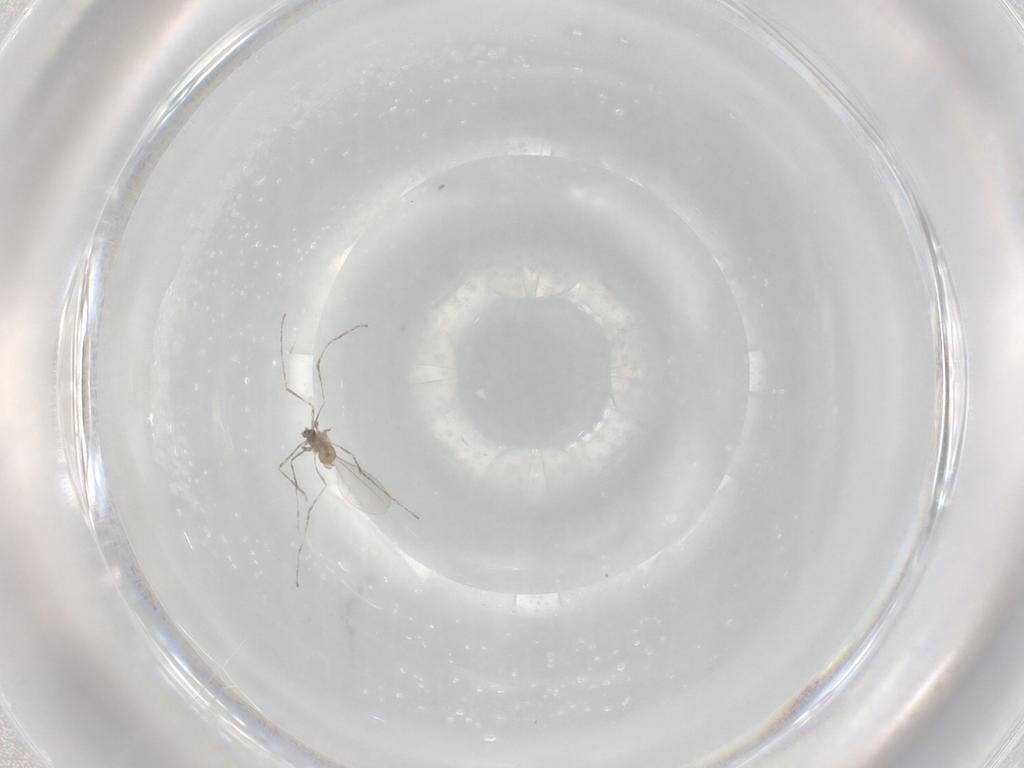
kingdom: Animalia
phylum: Arthropoda
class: Insecta
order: Diptera
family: Cecidomyiidae
